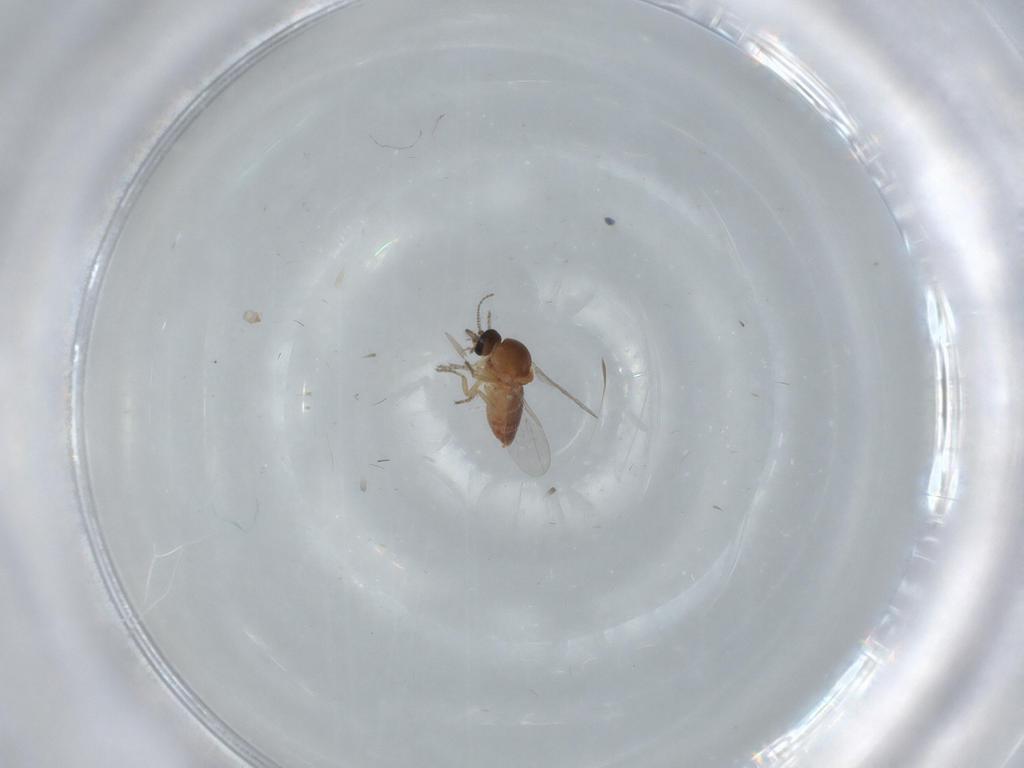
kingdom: Animalia
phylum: Arthropoda
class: Insecta
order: Diptera
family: Ceratopogonidae
